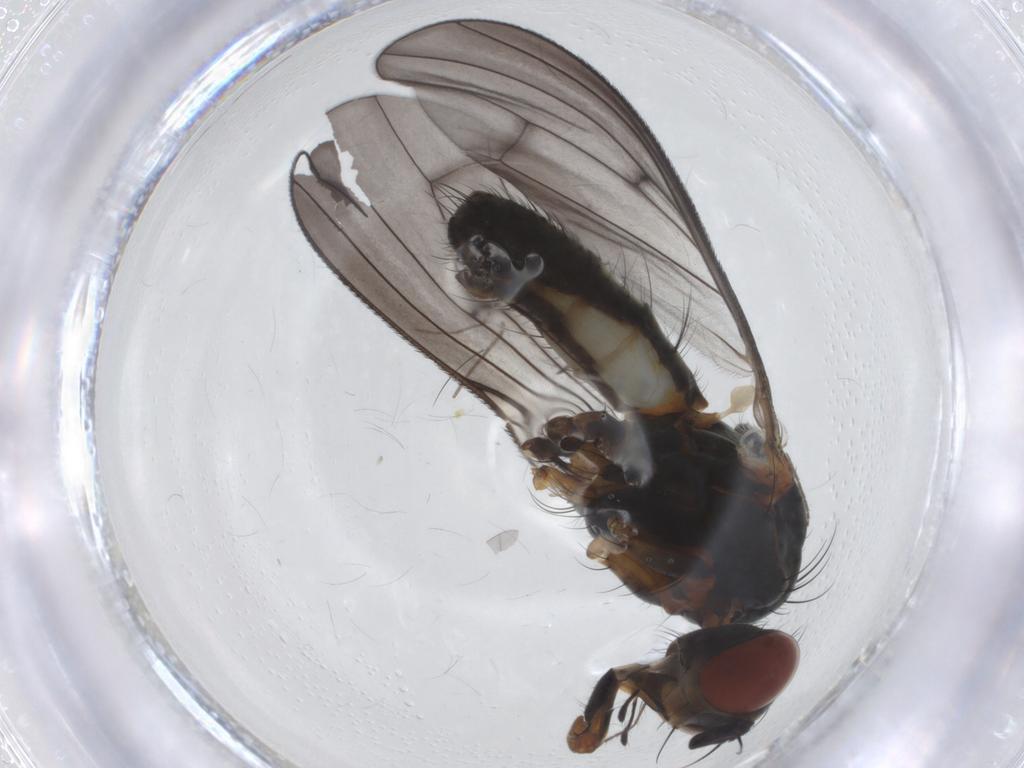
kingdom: Animalia
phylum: Arthropoda
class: Insecta
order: Diptera
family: Anthomyiidae
